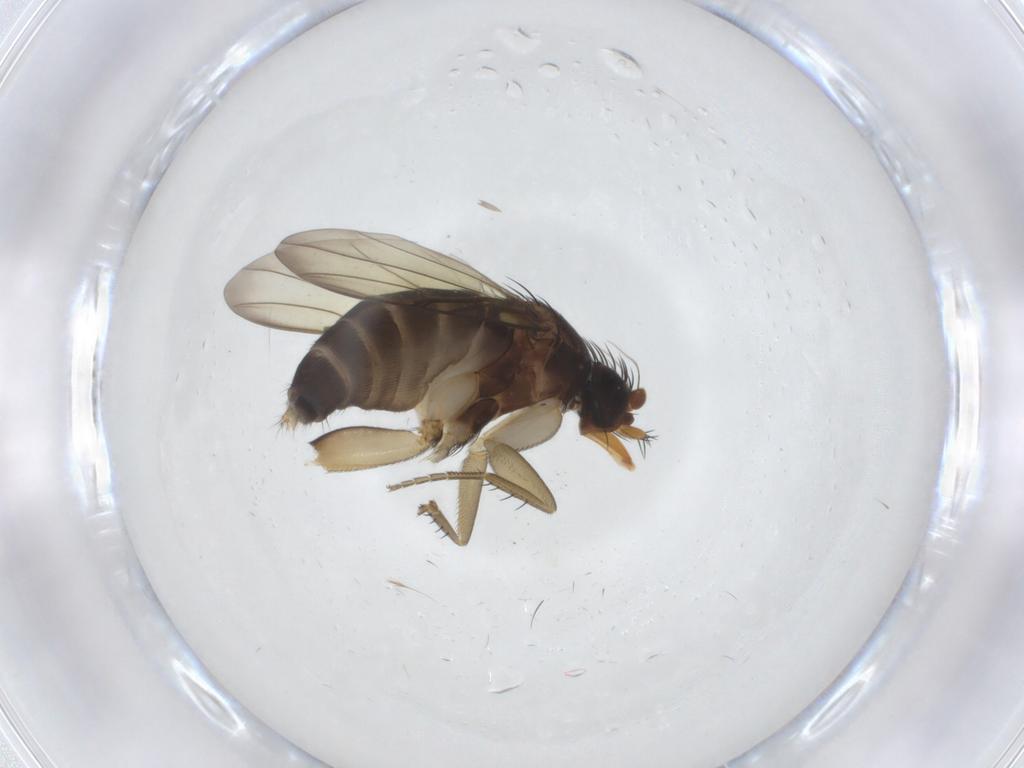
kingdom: Animalia
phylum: Arthropoda
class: Insecta
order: Diptera
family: Phoridae
